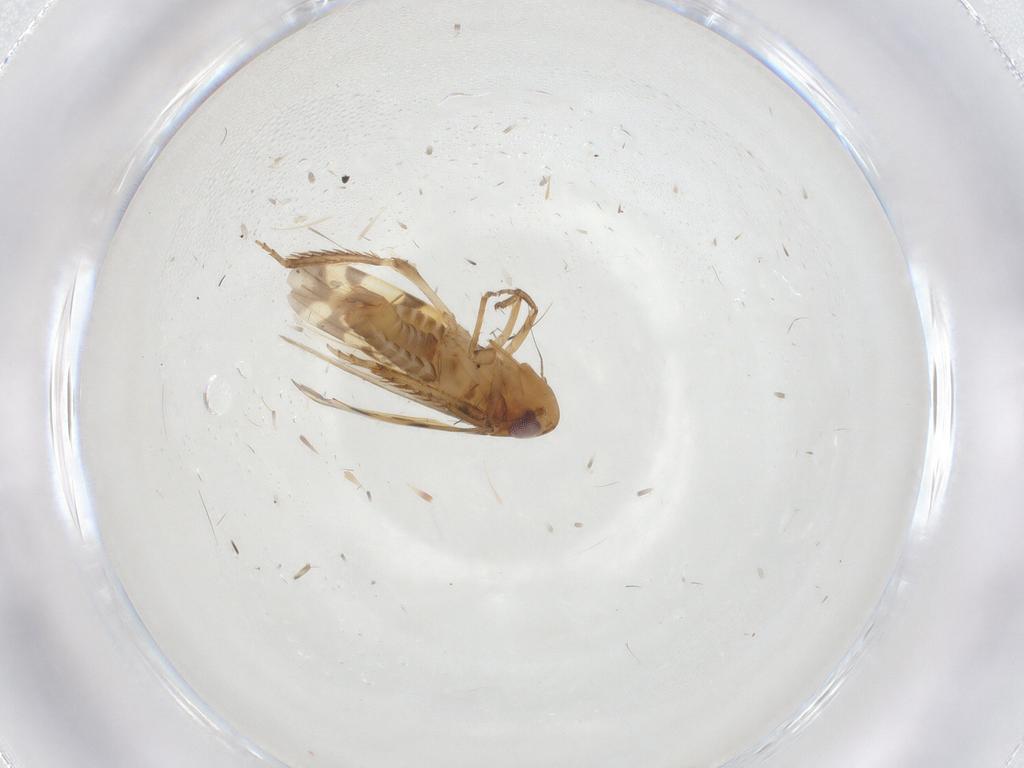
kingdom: Animalia
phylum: Arthropoda
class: Insecta
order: Hemiptera
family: Cicadellidae
